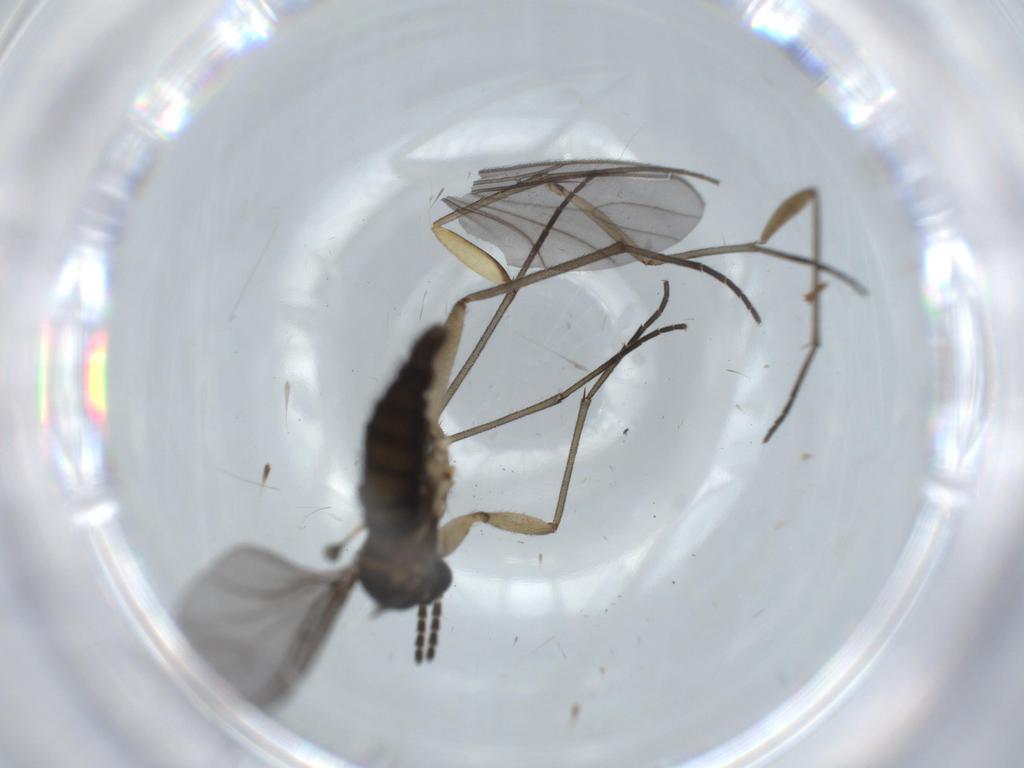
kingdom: Animalia
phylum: Arthropoda
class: Insecta
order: Diptera
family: Sciaridae
